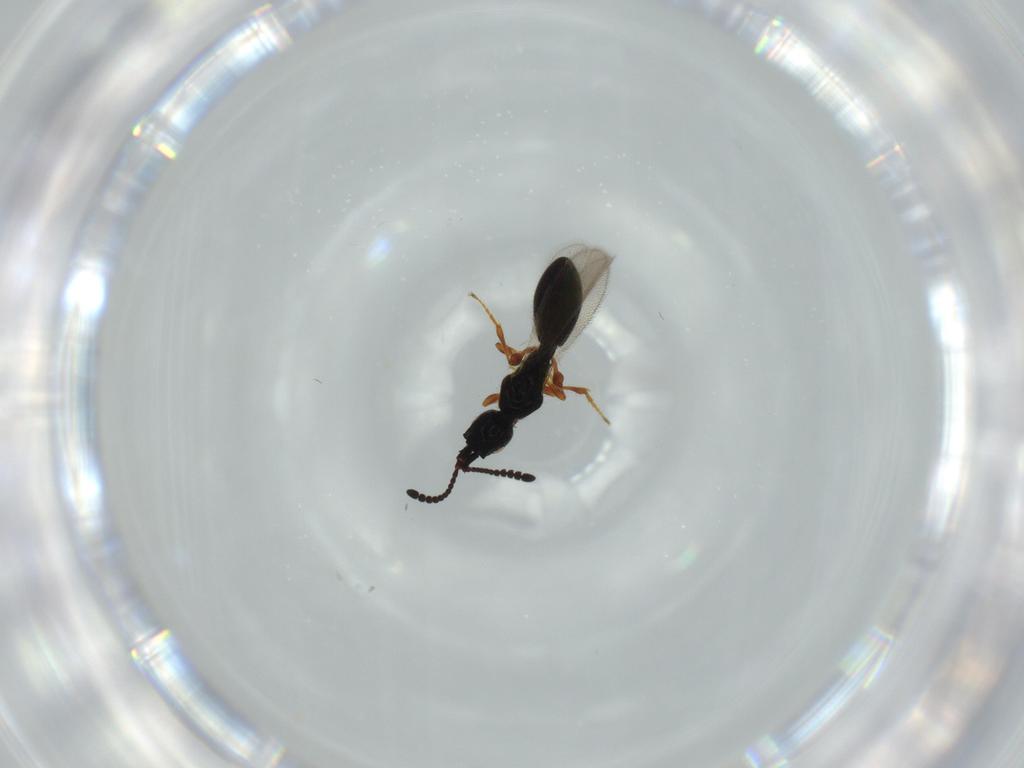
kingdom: Animalia
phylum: Arthropoda
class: Insecta
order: Hymenoptera
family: Diapriidae
